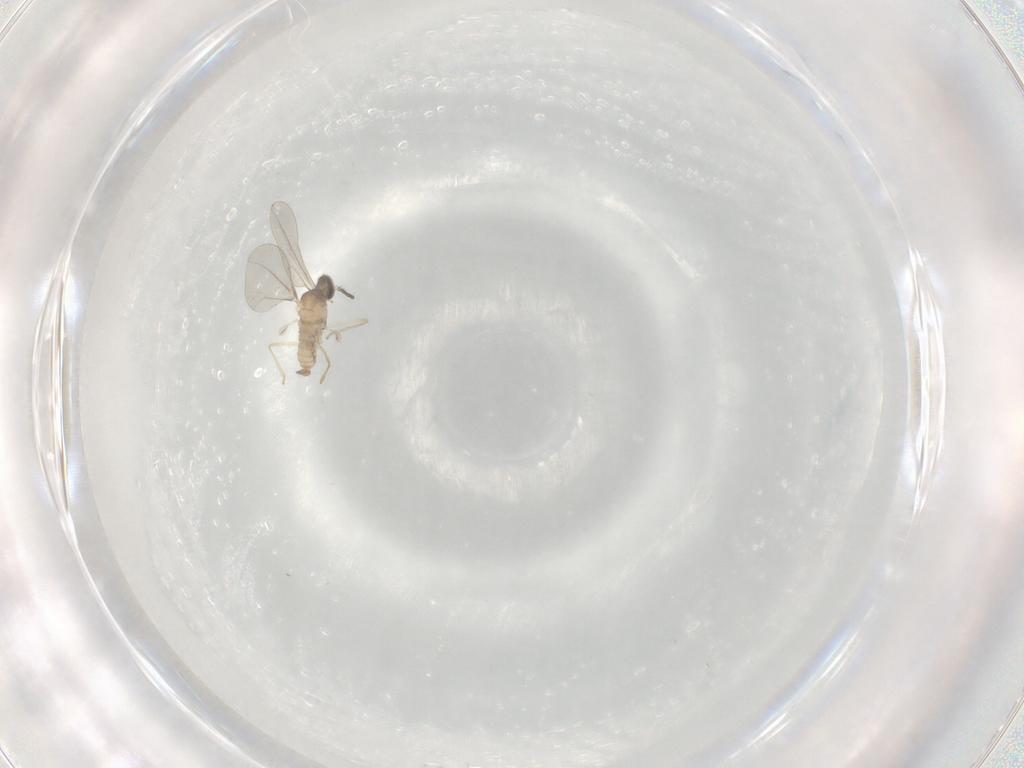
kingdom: Animalia
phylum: Arthropoda
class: Insecta
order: Diptera
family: Cecidomyiidae
